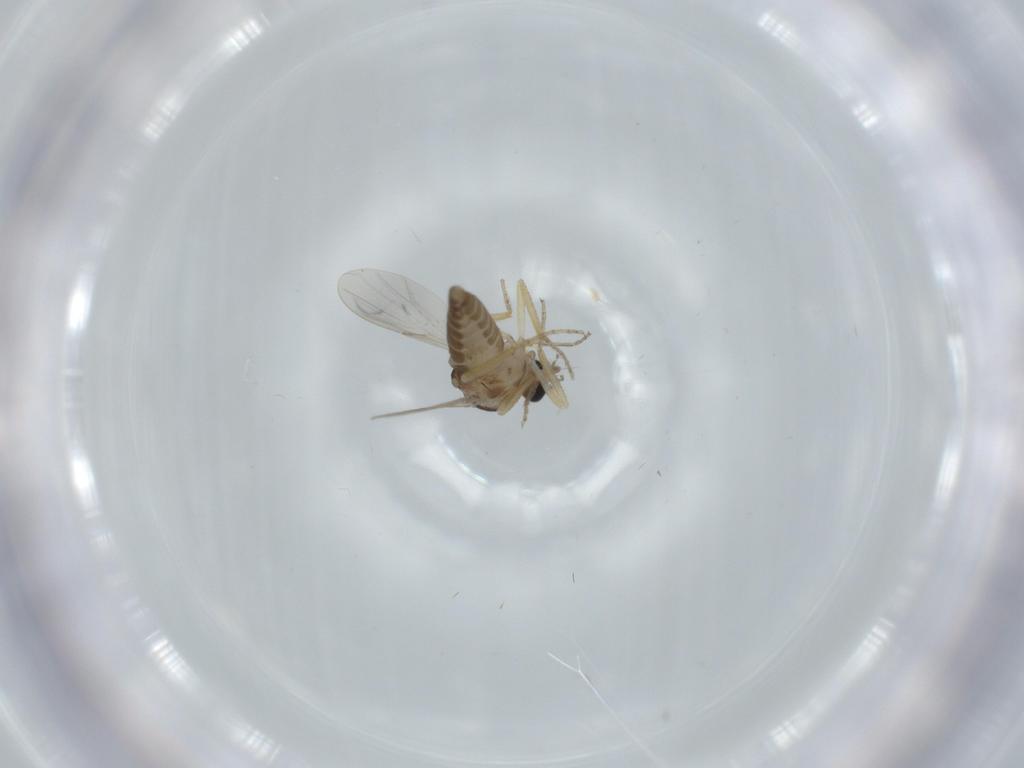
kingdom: Animalia
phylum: Arthropoda
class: Insecta
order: Diptera
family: Ceratopogonidae
